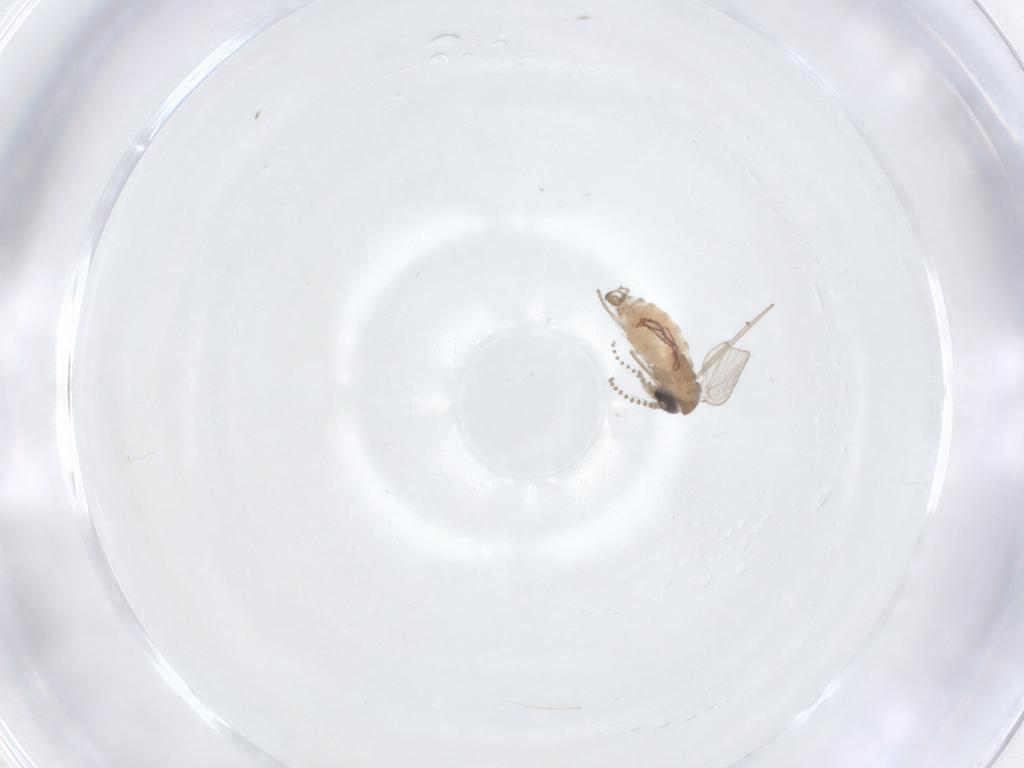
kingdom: Animalia
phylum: Arthropoda
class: Insecta
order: Diptera
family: Psychodidae
